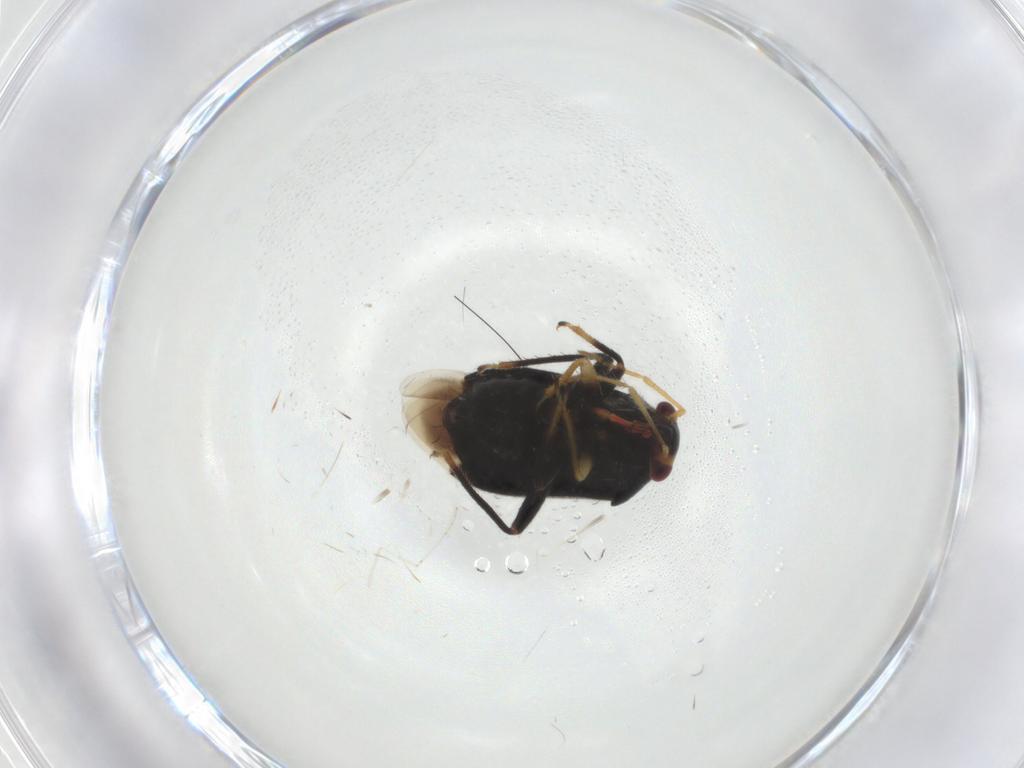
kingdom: Animalia
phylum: Arthropoda
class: Insecta
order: Hemiptera
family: Miridae
